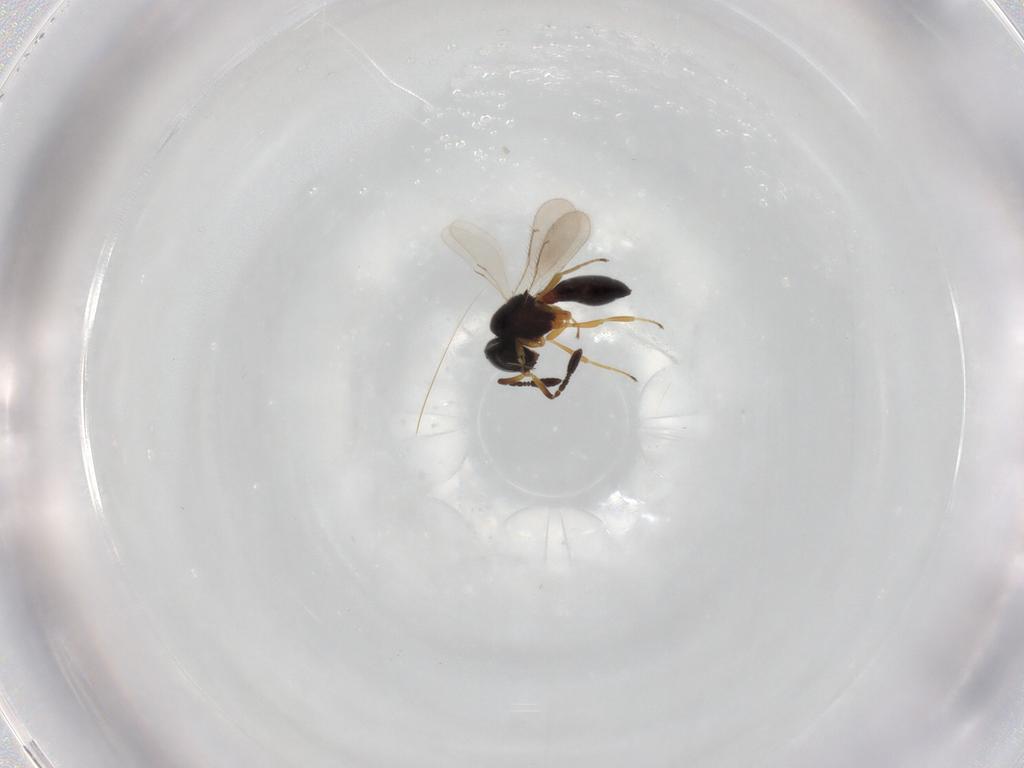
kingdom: Animalia
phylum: Arthropoda
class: Insecta
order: Hymenoptera
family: Scelionidae
